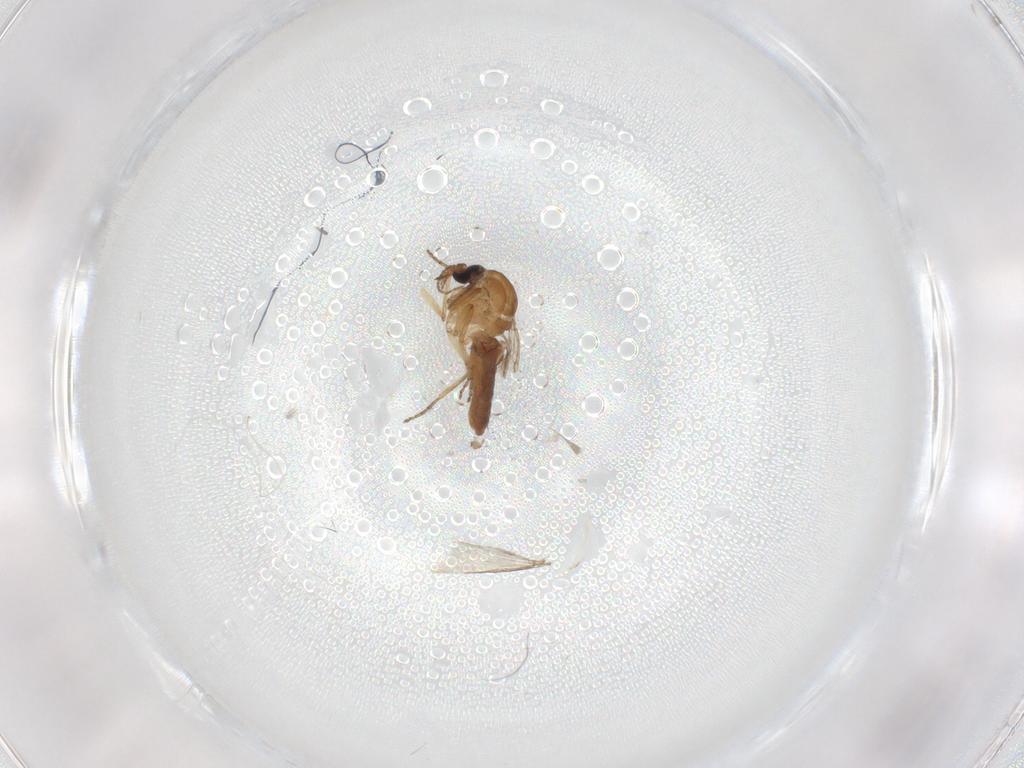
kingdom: Animalia
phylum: Arthropoda
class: Insecta
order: Diptera
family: Ceratopogonidae
